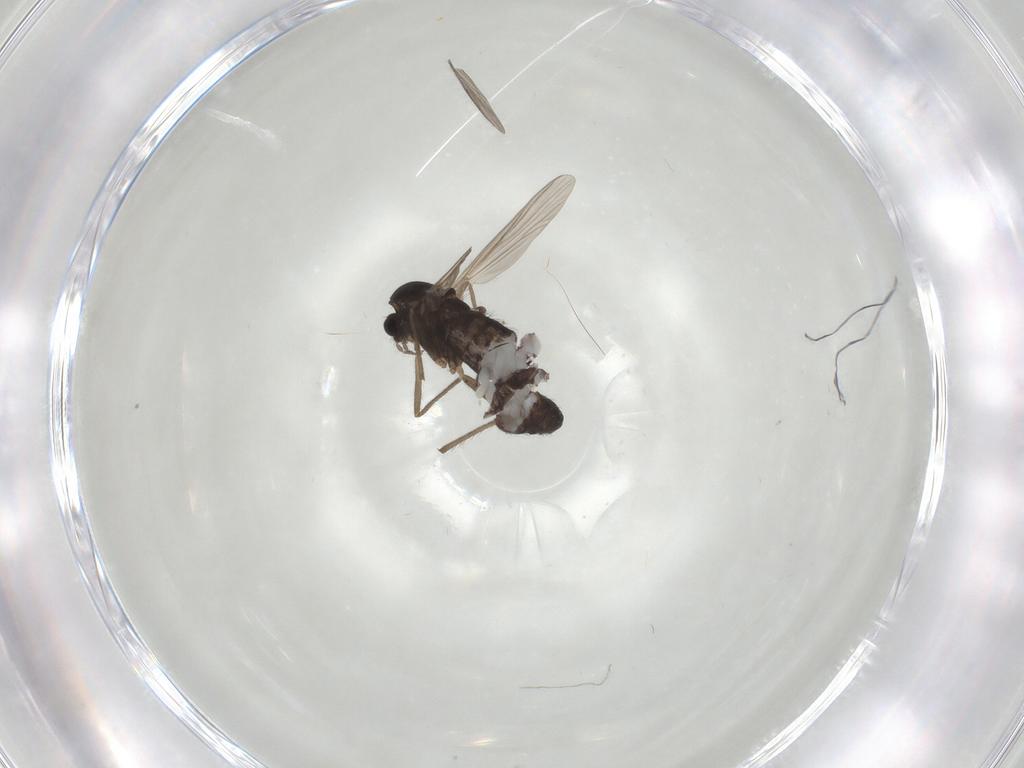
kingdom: Animalia
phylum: Arthropoda
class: Insecta
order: Diptera
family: Chironomidae
